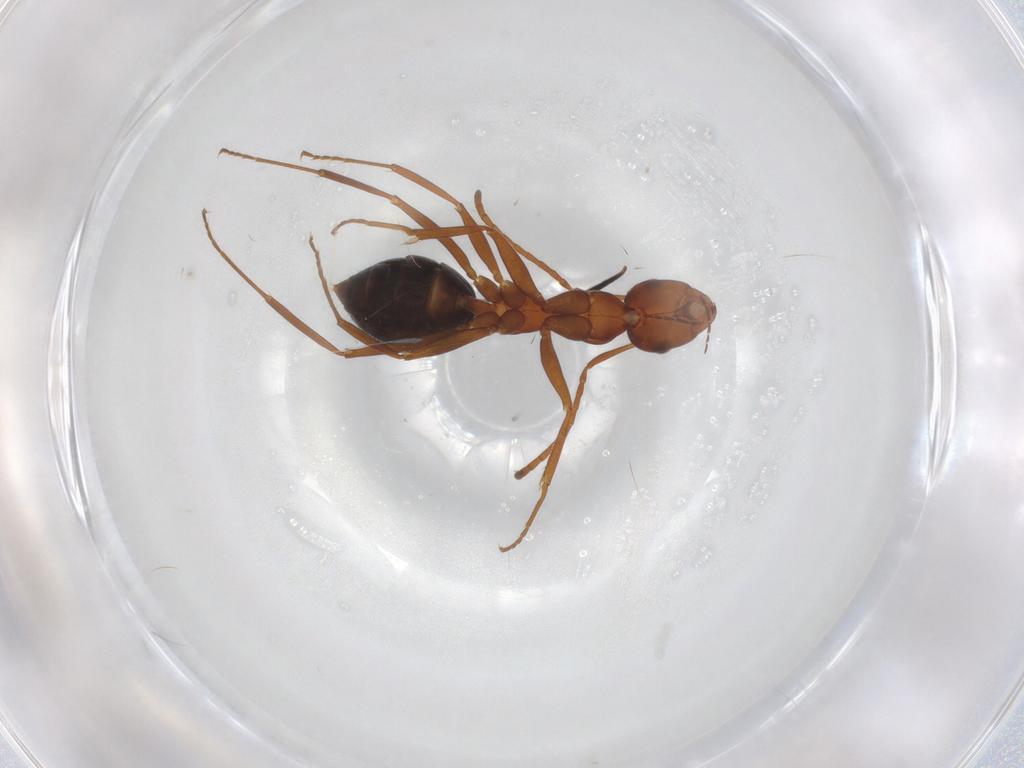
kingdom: Animalia
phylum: Arthropoda
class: Insecta
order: Hymenoptera
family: Formicidae
